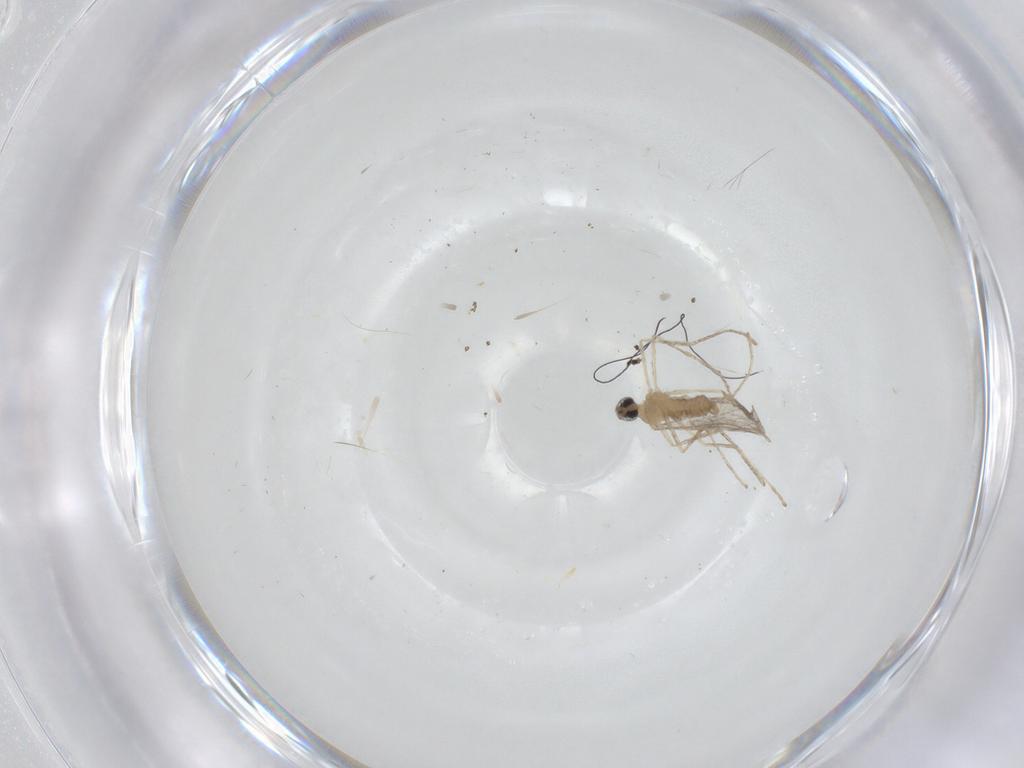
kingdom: Animalia
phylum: Arthropoda
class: Insecta
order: Diptera
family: Cecidomyiidae
